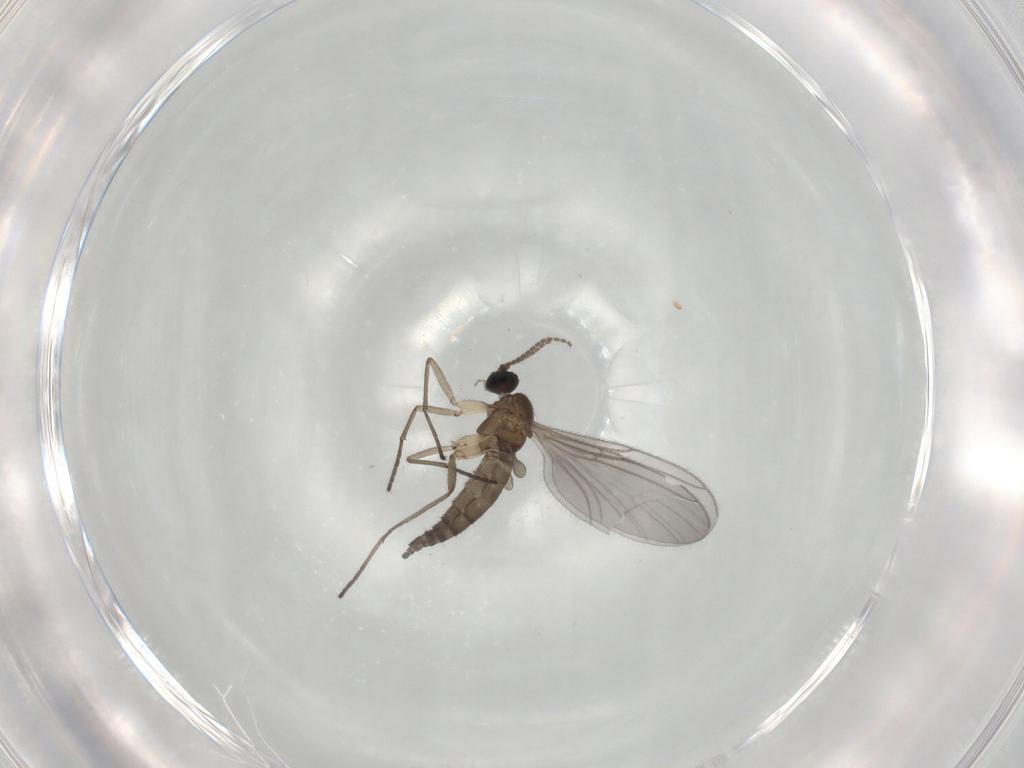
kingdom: Animalia
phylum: Arthropoda
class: Insecta
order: Diptera
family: Sciaridae
